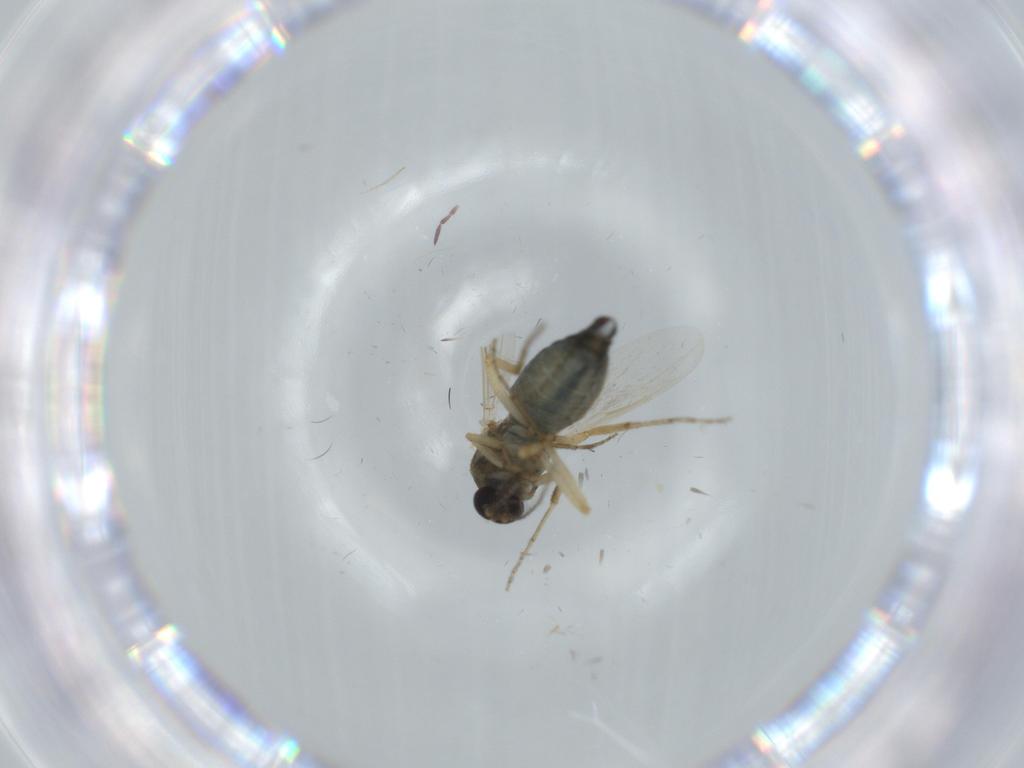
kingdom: Animalia
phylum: Arthropoda
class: Insecta
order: Diptera
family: Ceratopogonidae
